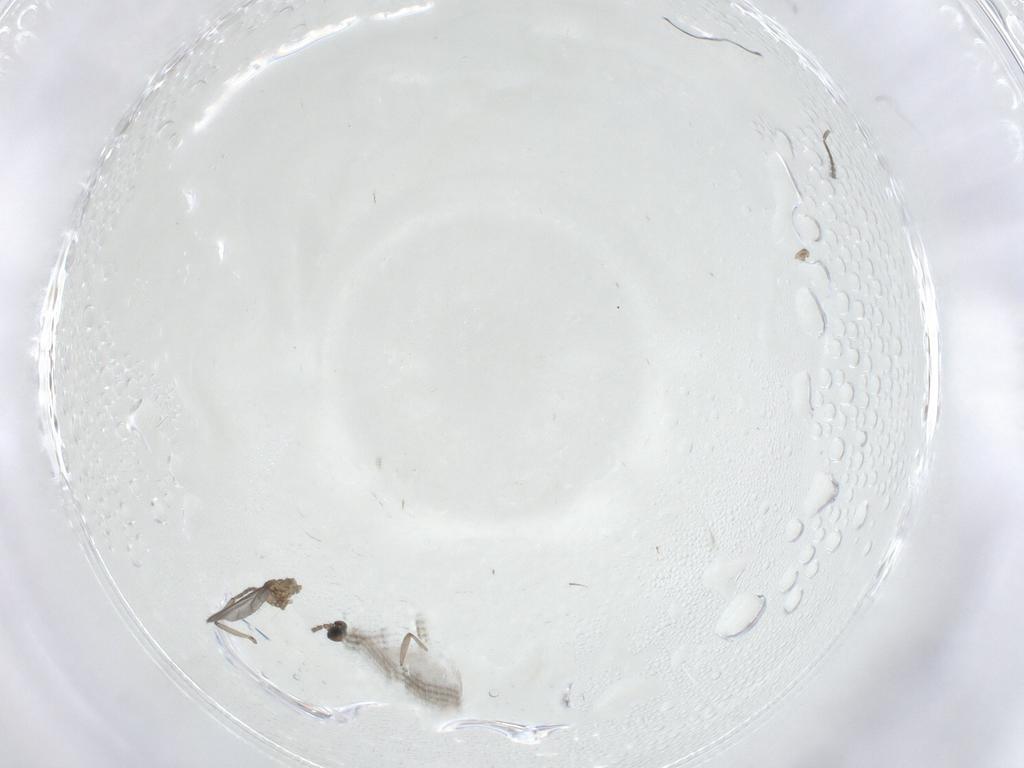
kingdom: Animalia
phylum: Arthropoda
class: Insecta
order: Diptera
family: Sciaridae
